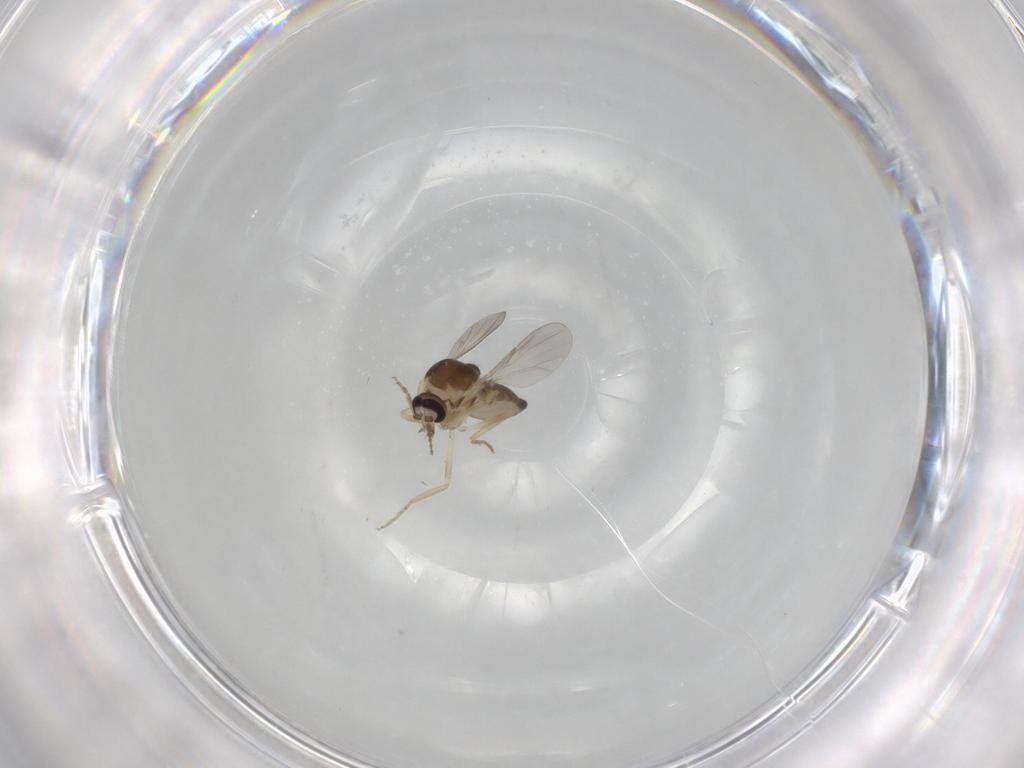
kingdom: Animalia
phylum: Arthropoda
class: Insecta
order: Diptera
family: Ceratopogonidae
